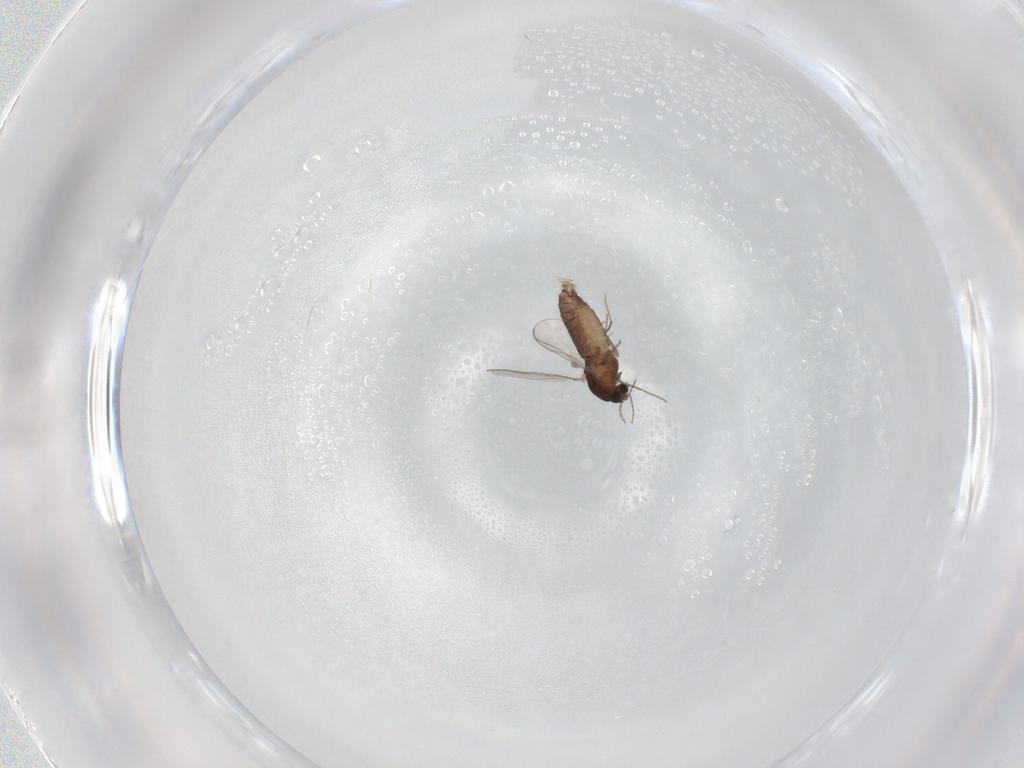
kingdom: Animalia
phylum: Arthropoda
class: Insecta
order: Diptera
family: Chironomidae
